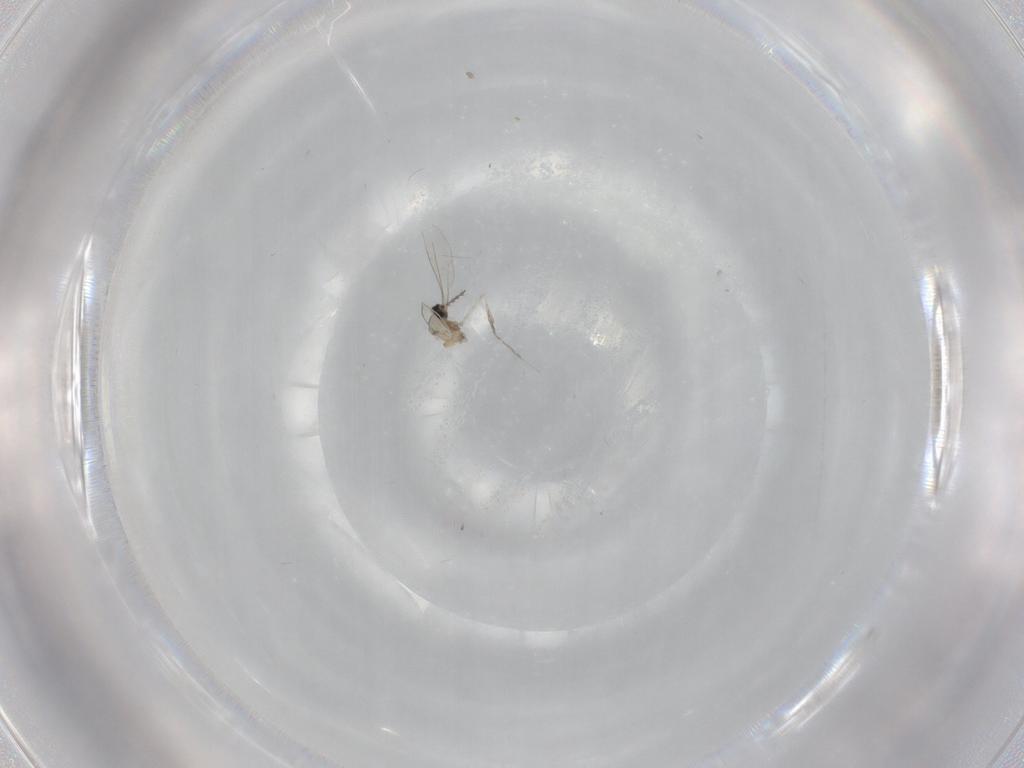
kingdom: Animalia
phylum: Arthropoda
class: Insecta
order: Diptera
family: Cecidomyiidae
